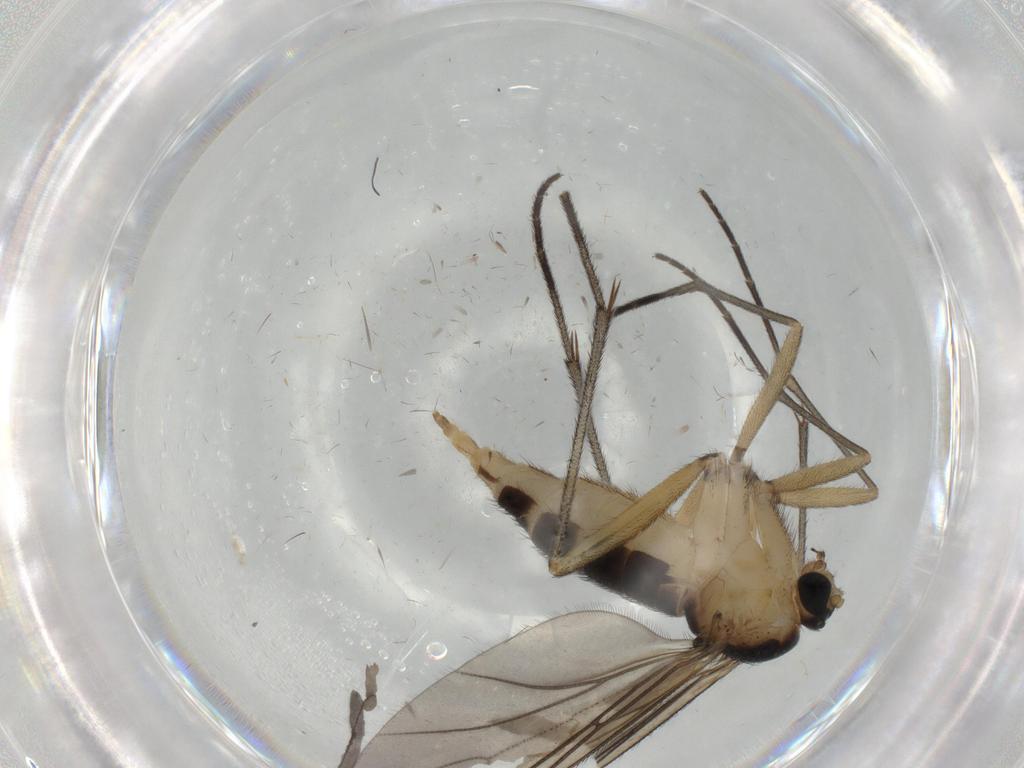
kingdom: Animalia
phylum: Arthropoda
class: Insecta
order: Diptera
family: Sciaridae
